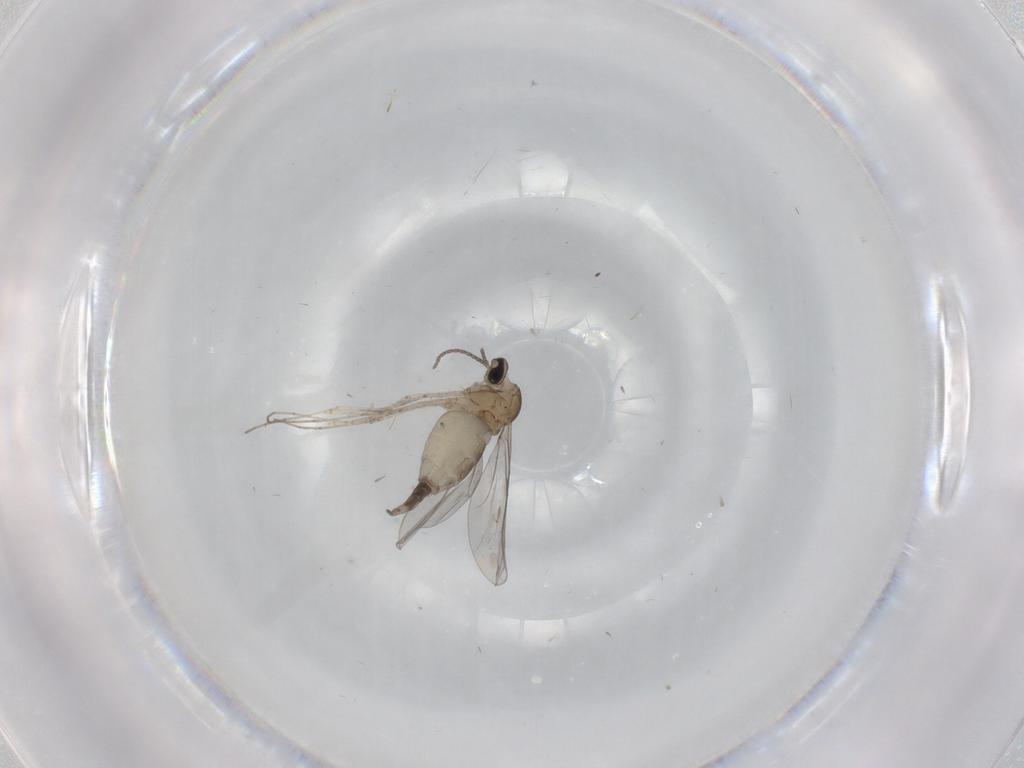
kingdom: Animalia
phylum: Arthropoda
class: Insecta
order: Diptera
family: Cecidomyiidae
